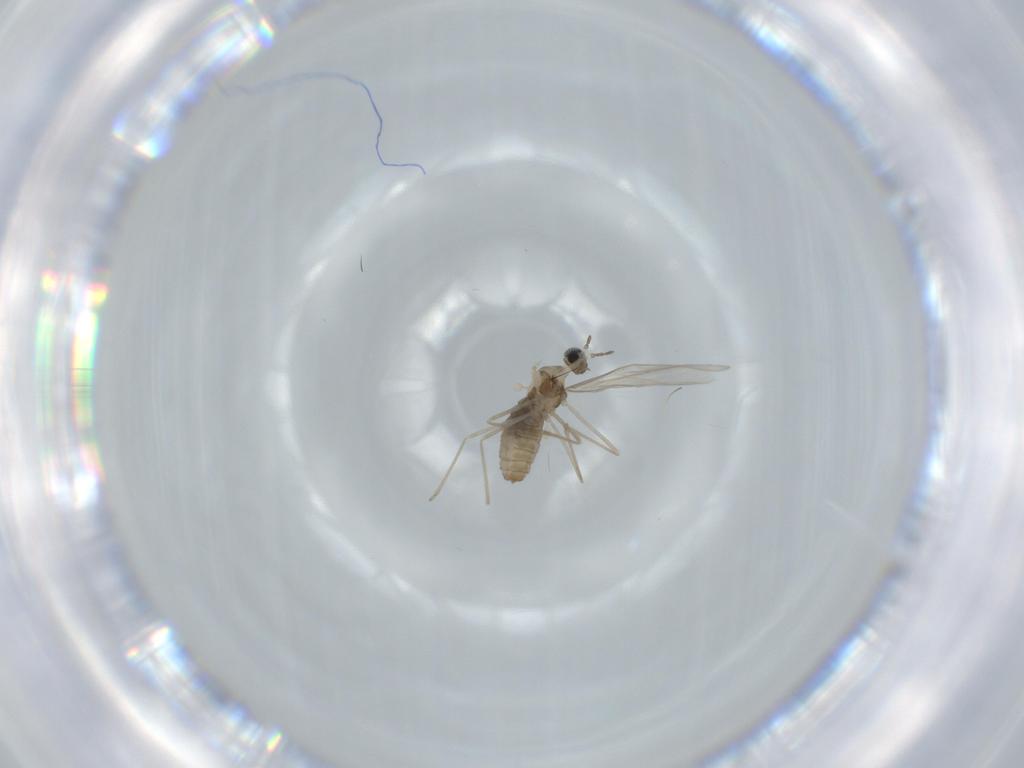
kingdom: Animalia
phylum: Arthropoda
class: Insecta
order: Diptera
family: Cecidomyiidae
